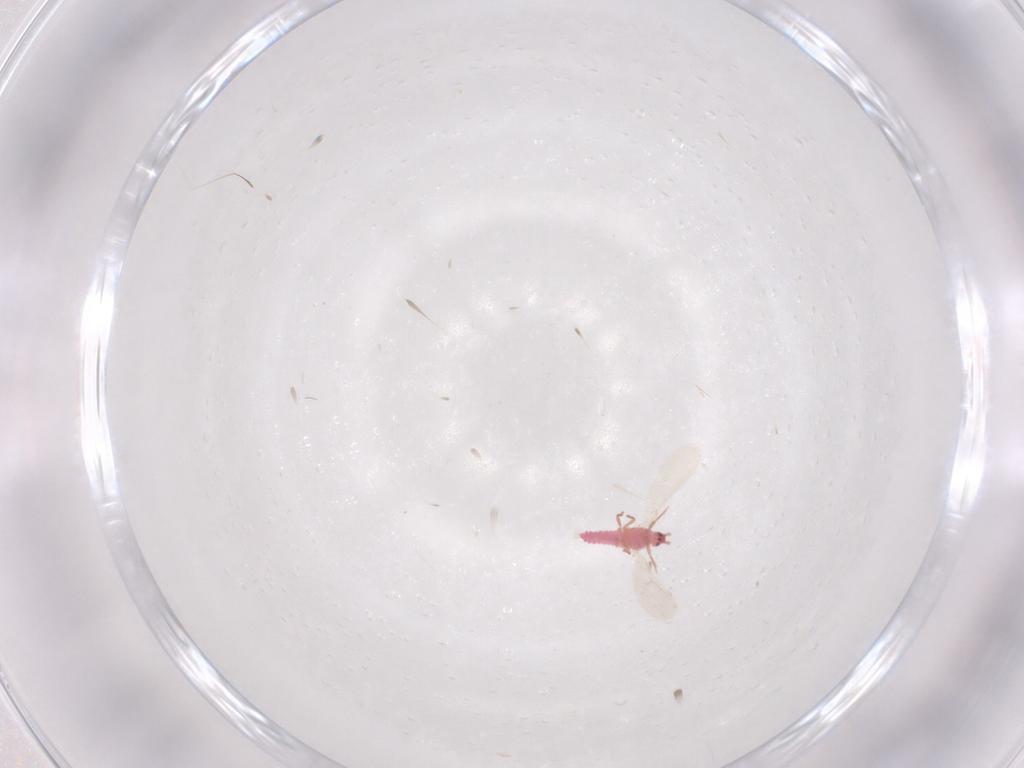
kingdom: Animalia
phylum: Arthropoda
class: Insecta
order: Hemiptera
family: Coccoidea_incertae_sedis
